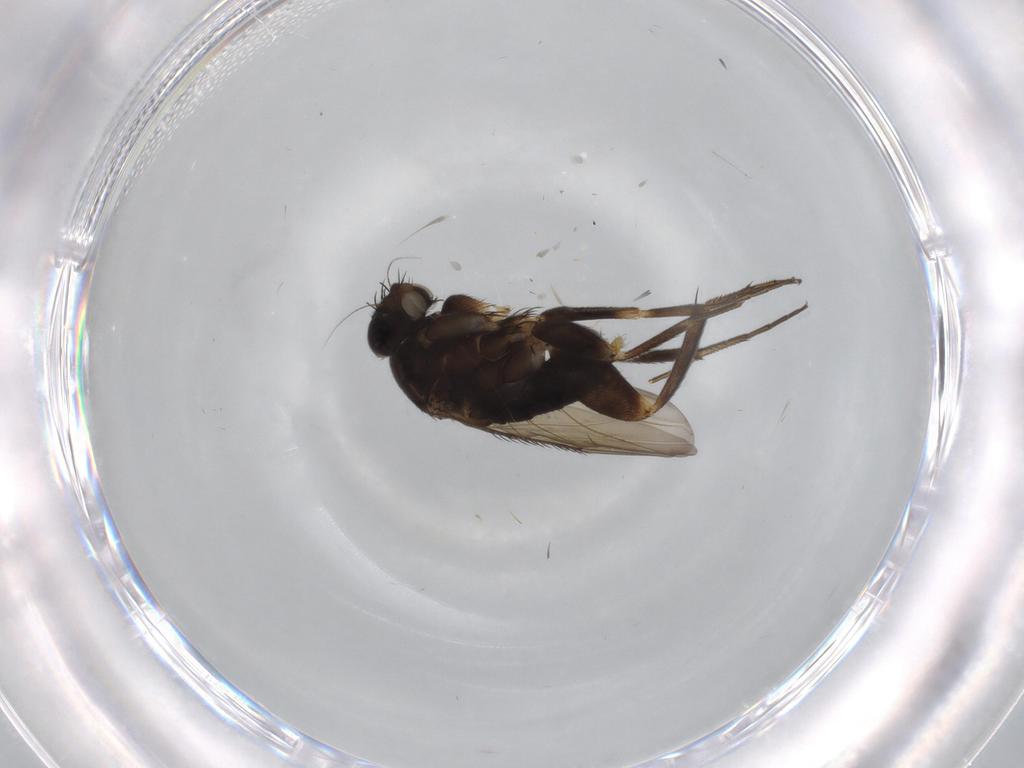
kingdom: Animalia
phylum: Arthropoda
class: Insecta
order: Diptera
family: Phoridae
